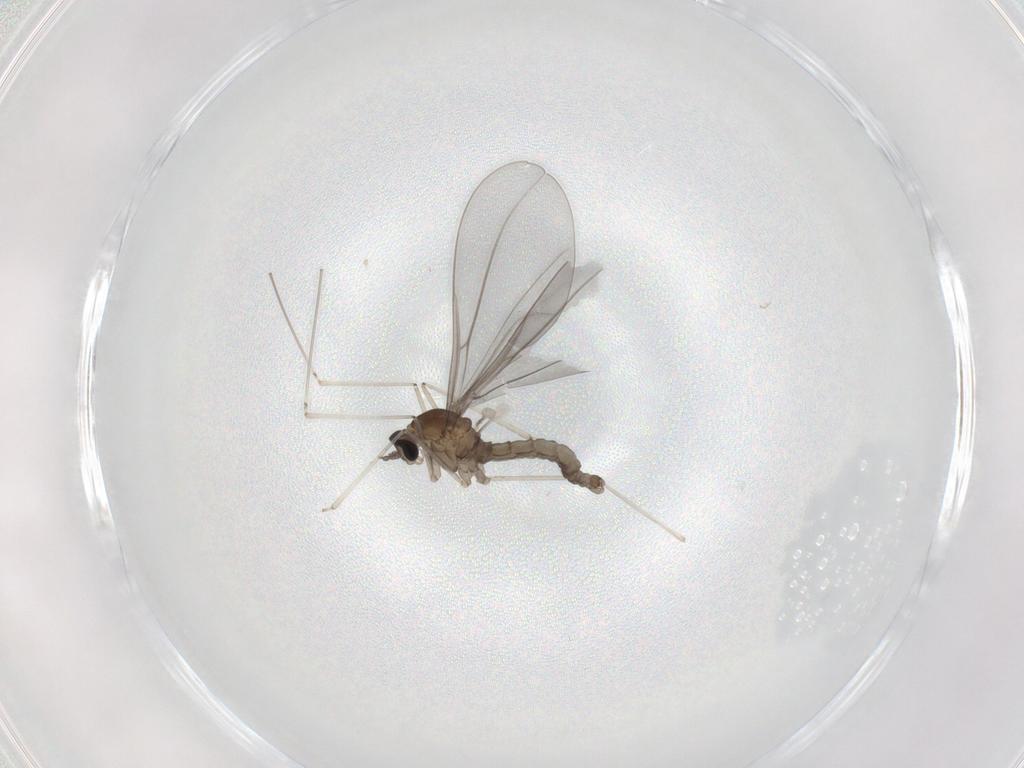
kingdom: Animalia
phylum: Arthropoda
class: Insecta
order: Diptera
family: Cecidomyiidae
